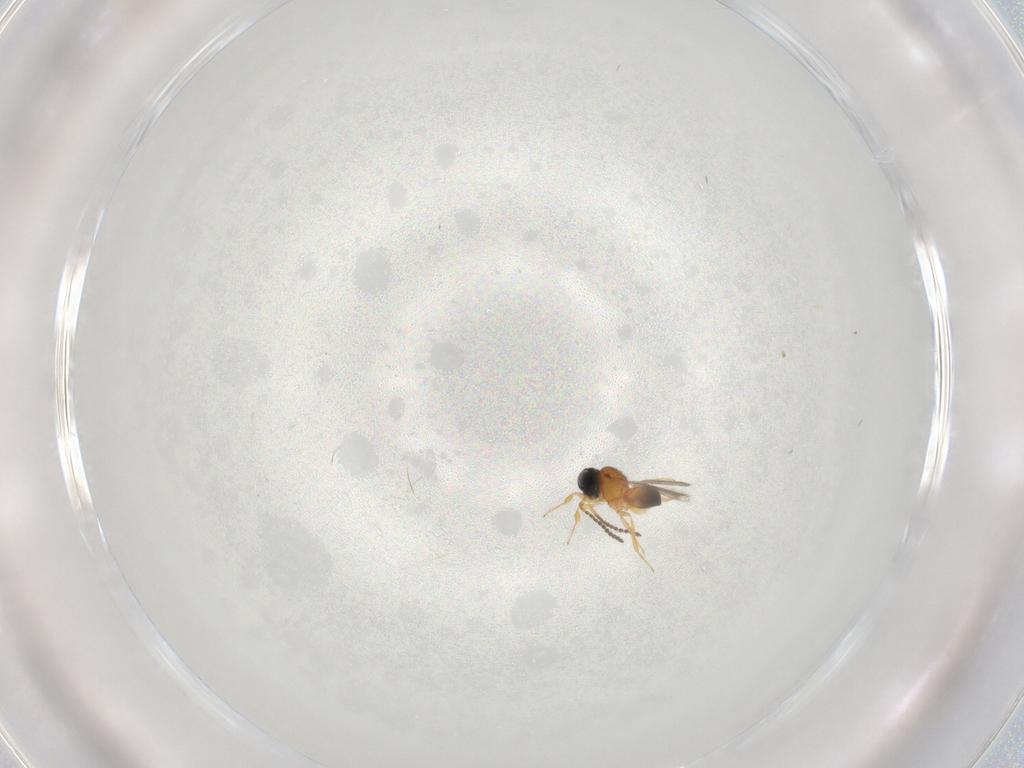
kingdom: Animalia
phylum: Arthropoda
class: Insecta
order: Hymenoptera
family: Scelionidae
